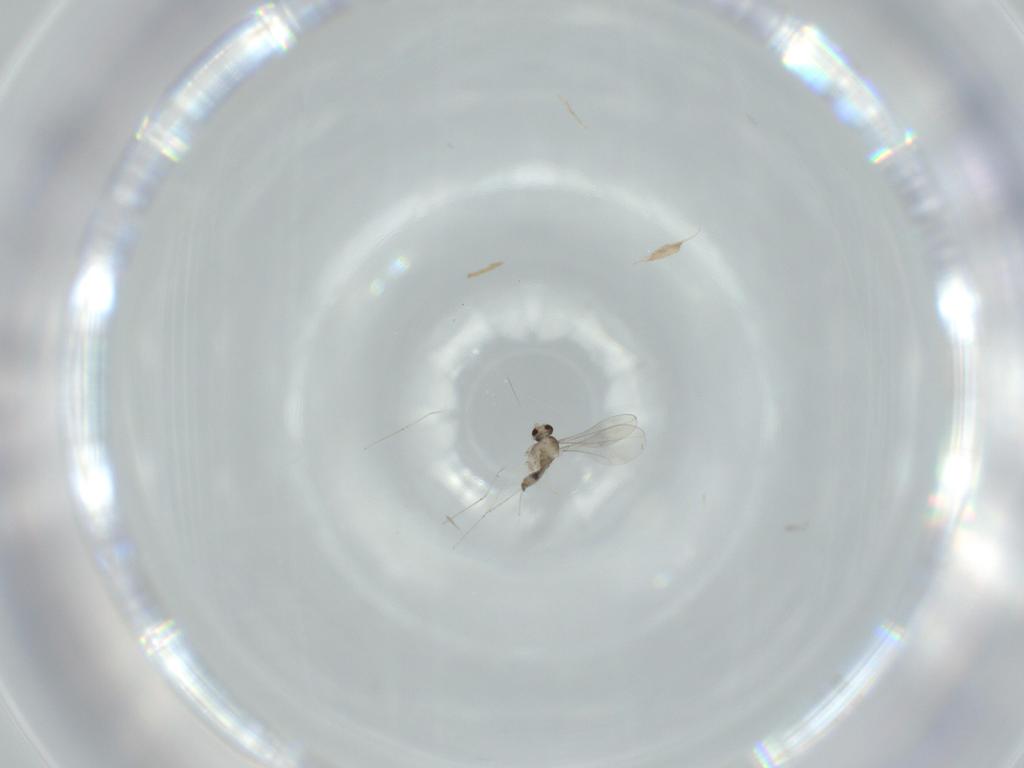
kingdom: Animalia
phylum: Arthropoda
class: Insecta
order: Diptera
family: Cecidomyiidae
